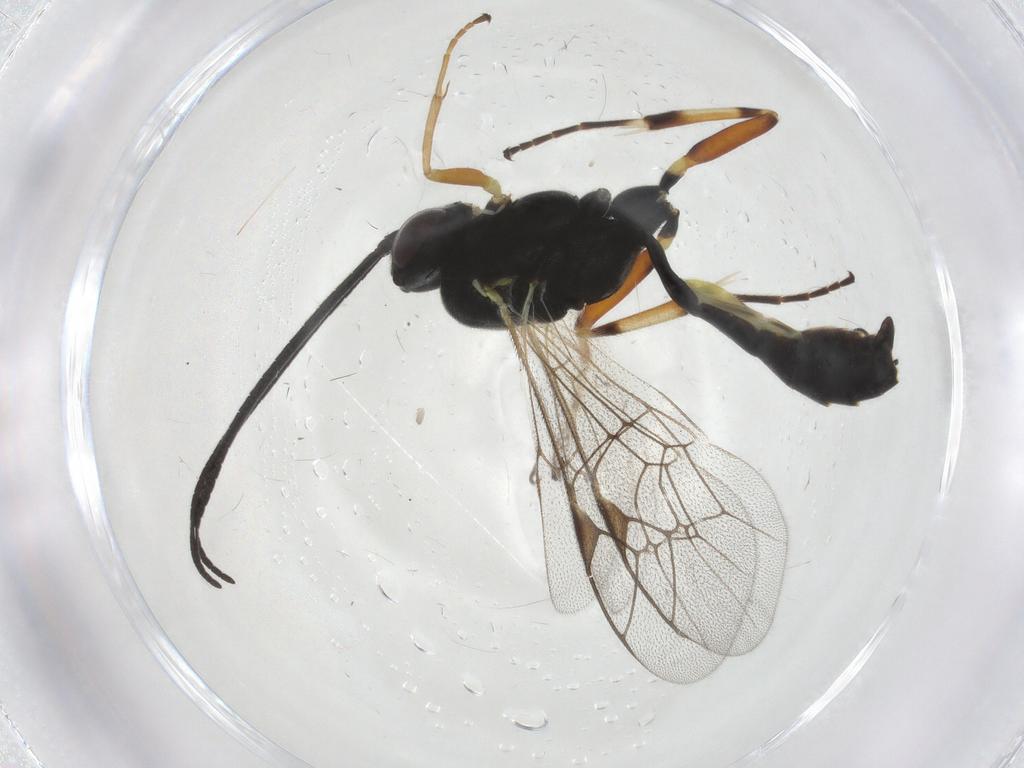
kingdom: Animalia
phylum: Arthropoda
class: Insecta
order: Hymenoptera
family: Ichneumonidae
